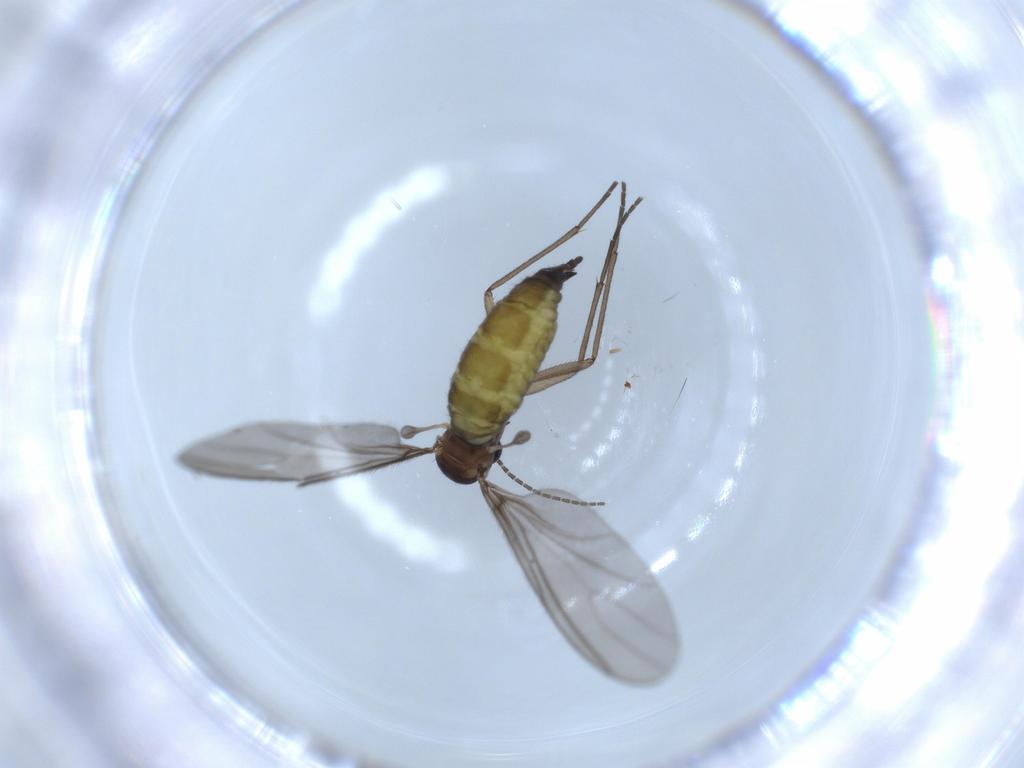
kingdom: Animalia
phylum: Arthropoda
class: Insecta
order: Diptera
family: Sciaridae
